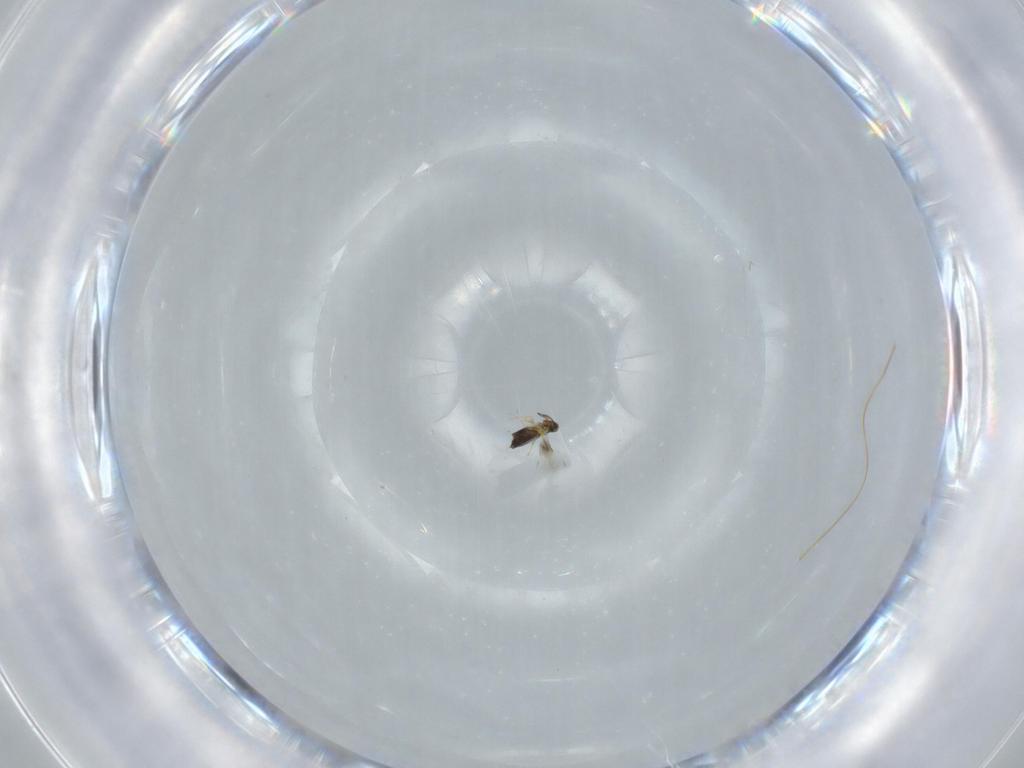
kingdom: Animalia
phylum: Arthropoda
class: Insecta
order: Hymenoptera
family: Signiphoridae
